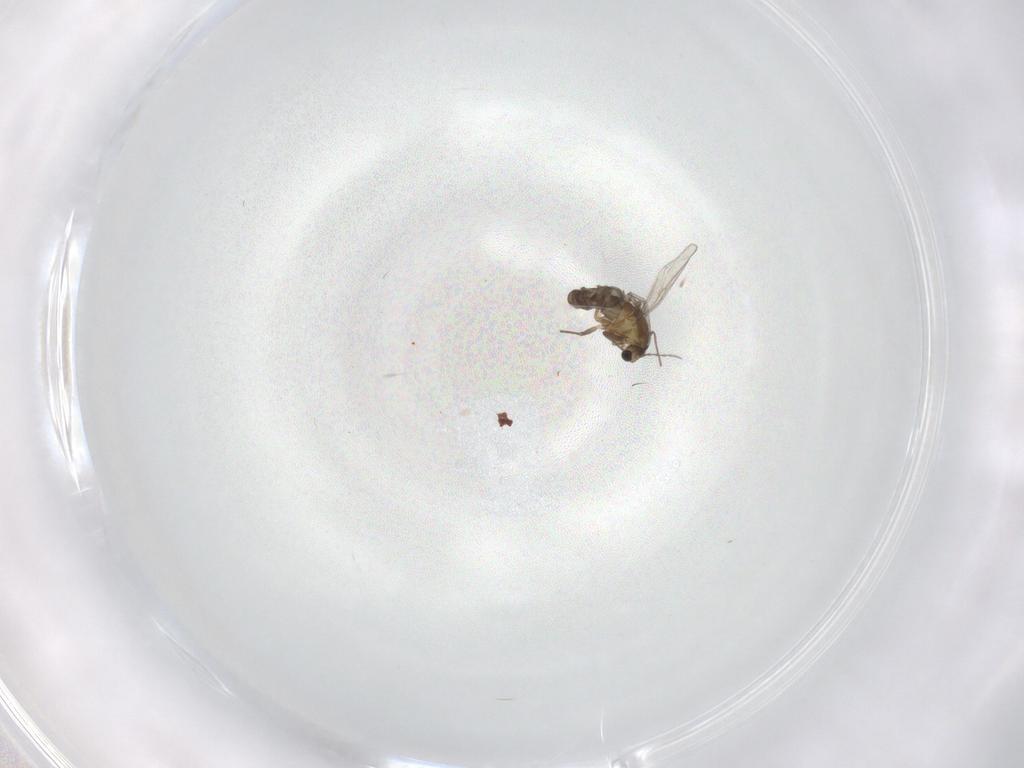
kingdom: Animalia
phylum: Arthropoda
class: Insecta
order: Diptera
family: Chironomidae
